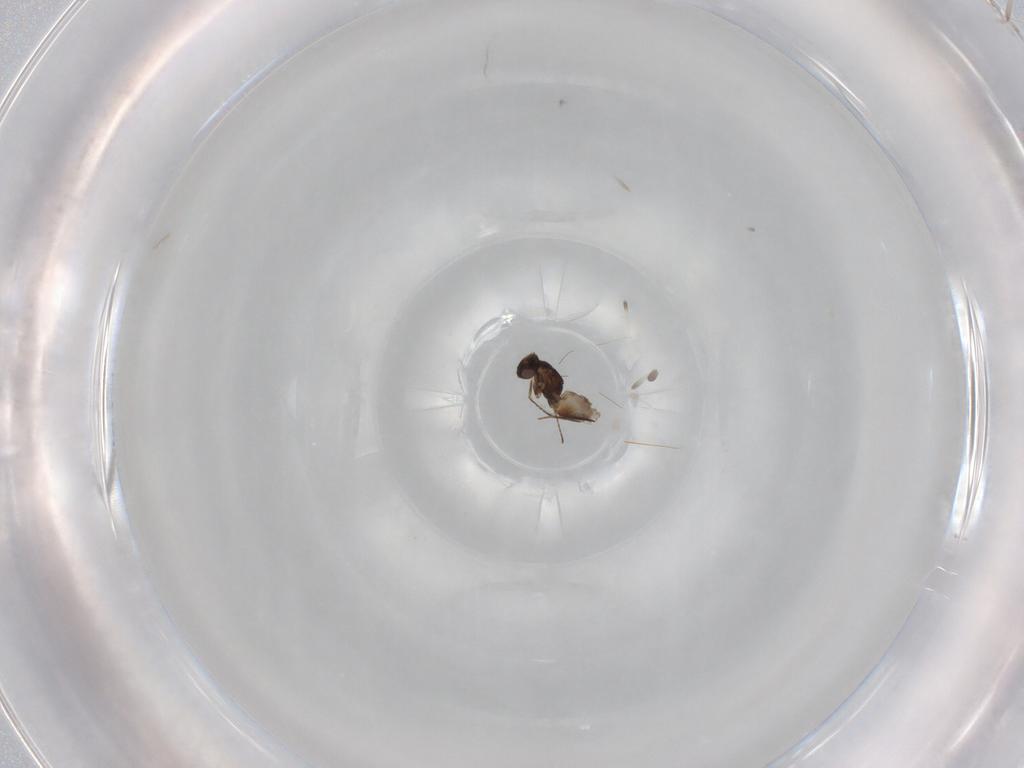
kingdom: Animalia
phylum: Arthropoda
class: Insecta
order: Hymenoptera
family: Mymaridae
